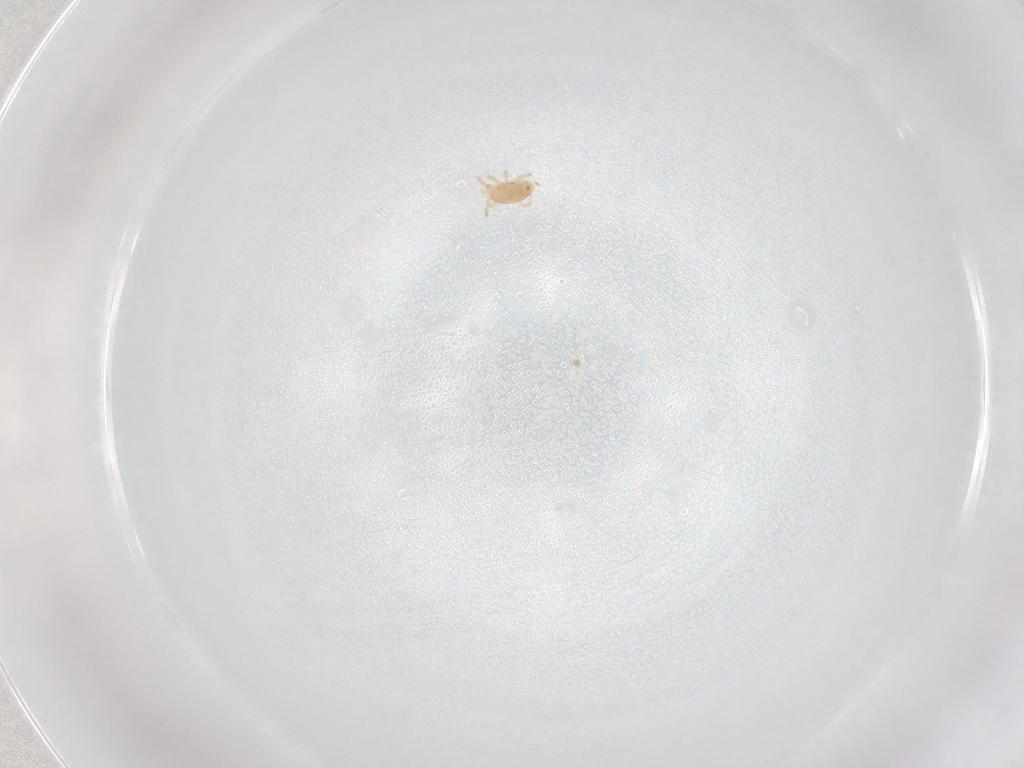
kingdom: Animalia
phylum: Arthropoda
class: Arachnida
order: Mesostigmata
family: Phytoseiidae
